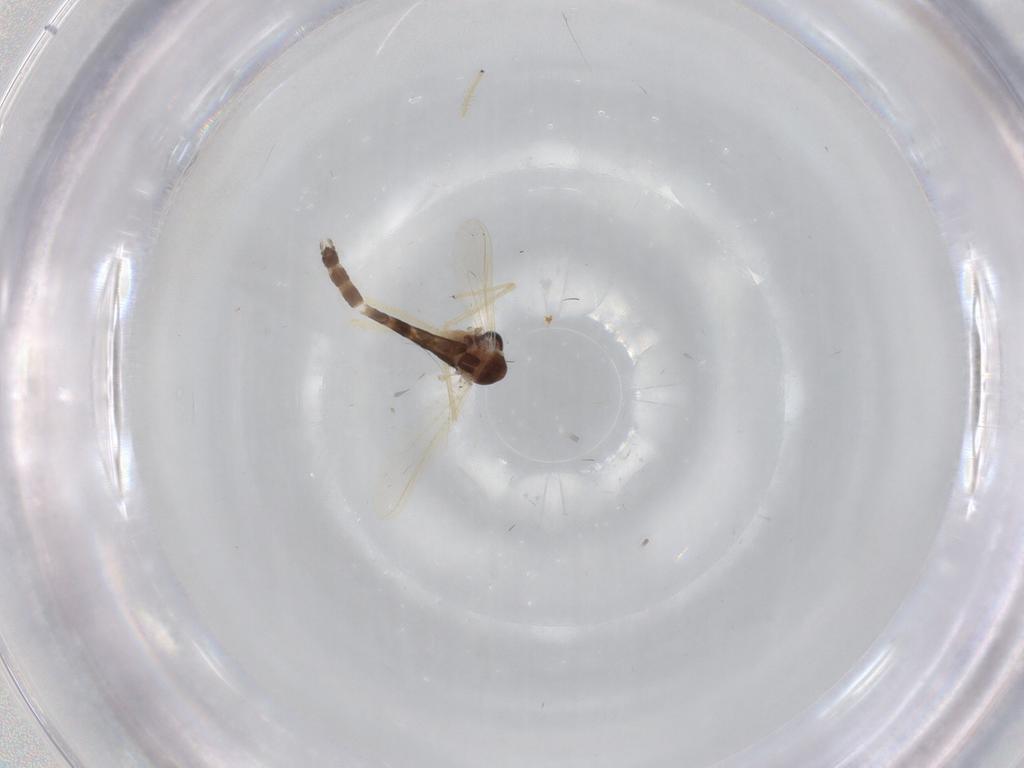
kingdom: Animalia
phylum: Arthropoda
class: Insecta
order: Diptera
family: Chironomidae
